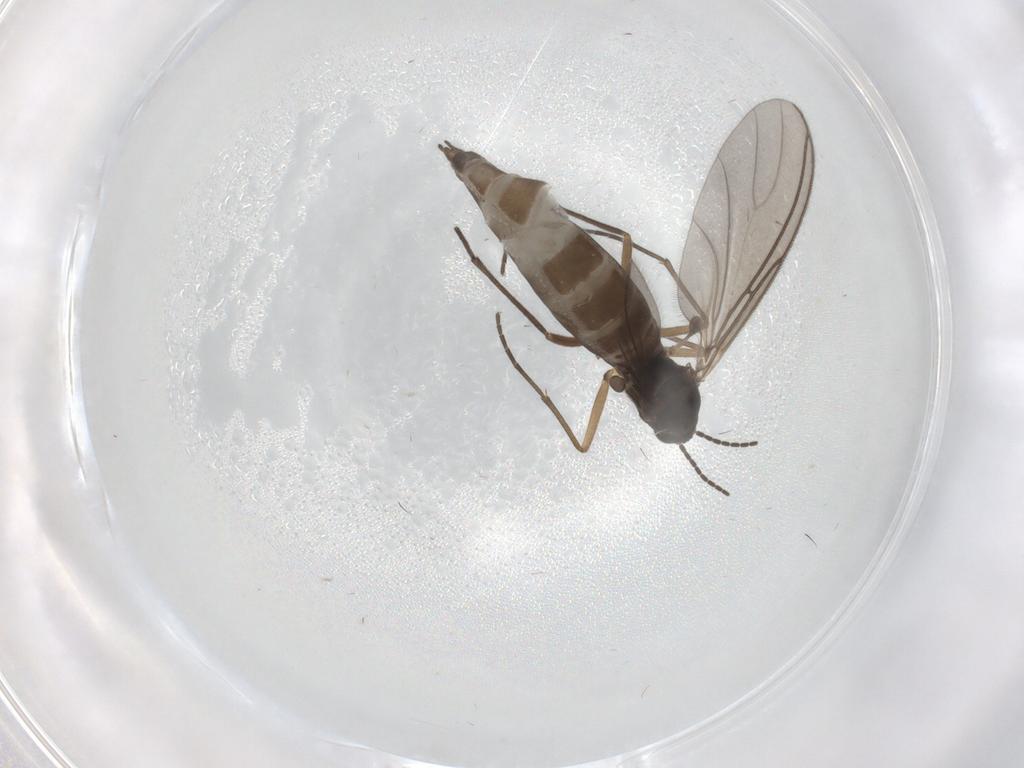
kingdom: Animalia
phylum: Arthropoda
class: Insecta
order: Diptera
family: Sciaridae
